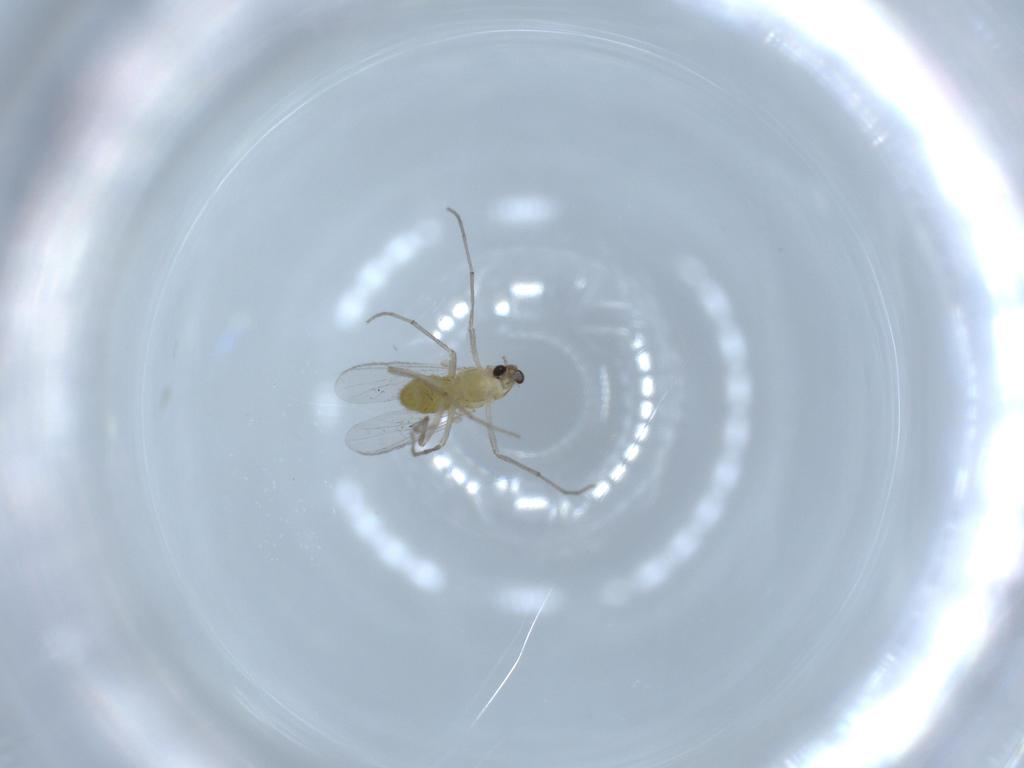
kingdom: Animalia
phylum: Arthropoda
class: Insecta
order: Diptera
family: Chironomidae
